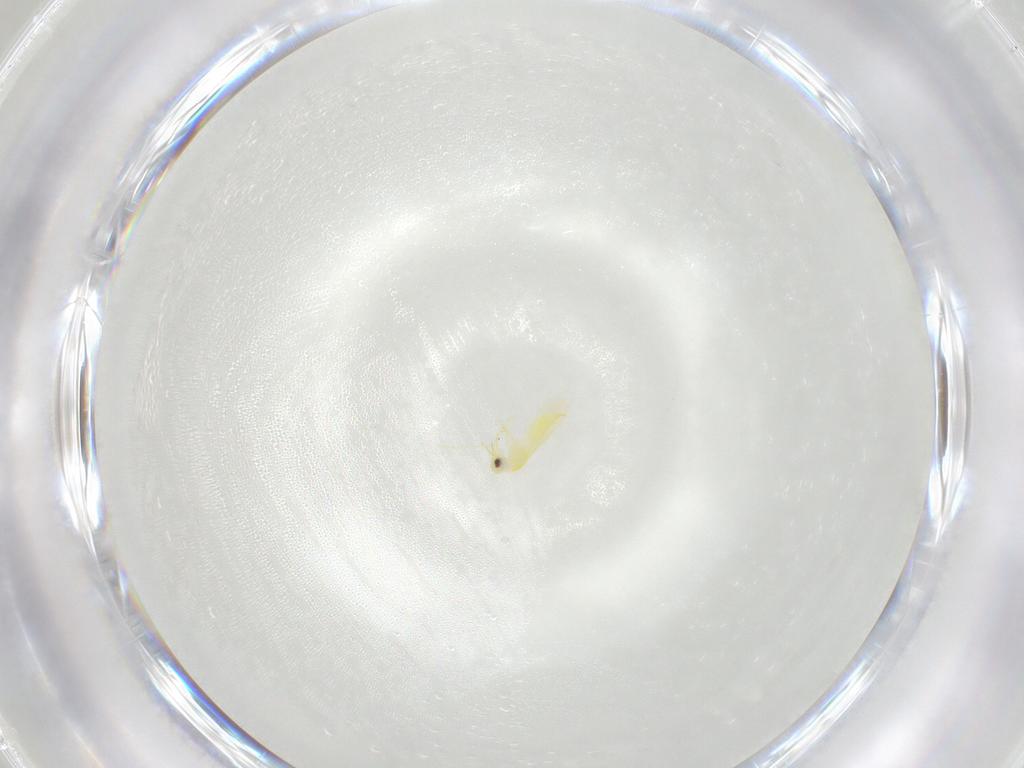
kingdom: Animalia
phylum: Arthropoda
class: Insecta
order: Hemiptera
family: Aleyrodidae
